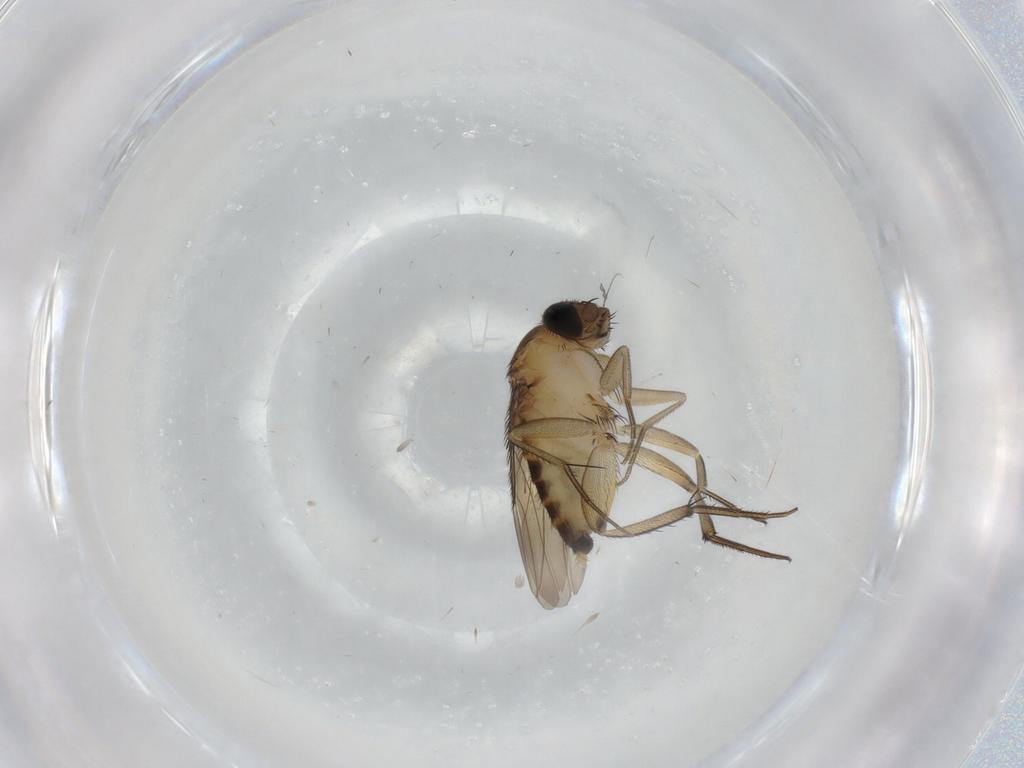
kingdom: Animalia
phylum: Arthropoda
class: Insecta
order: Diptera
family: Phoridae
